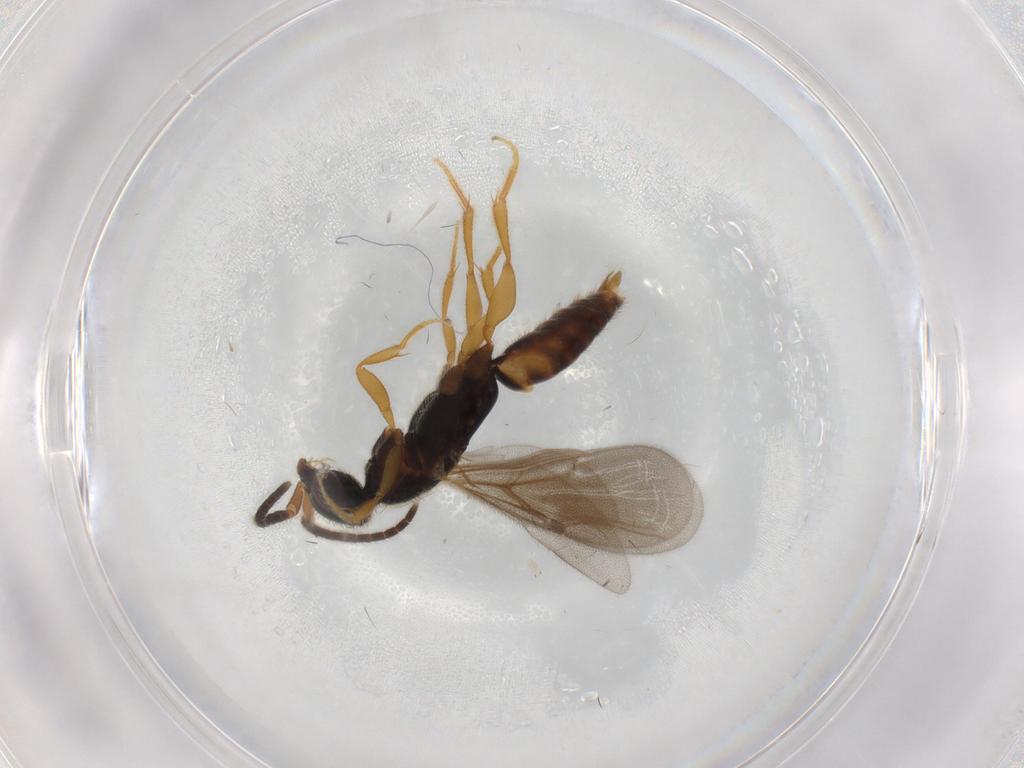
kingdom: Animalia
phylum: Arthropoda
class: Insecta
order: Hymenoptera
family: Bethylidae
